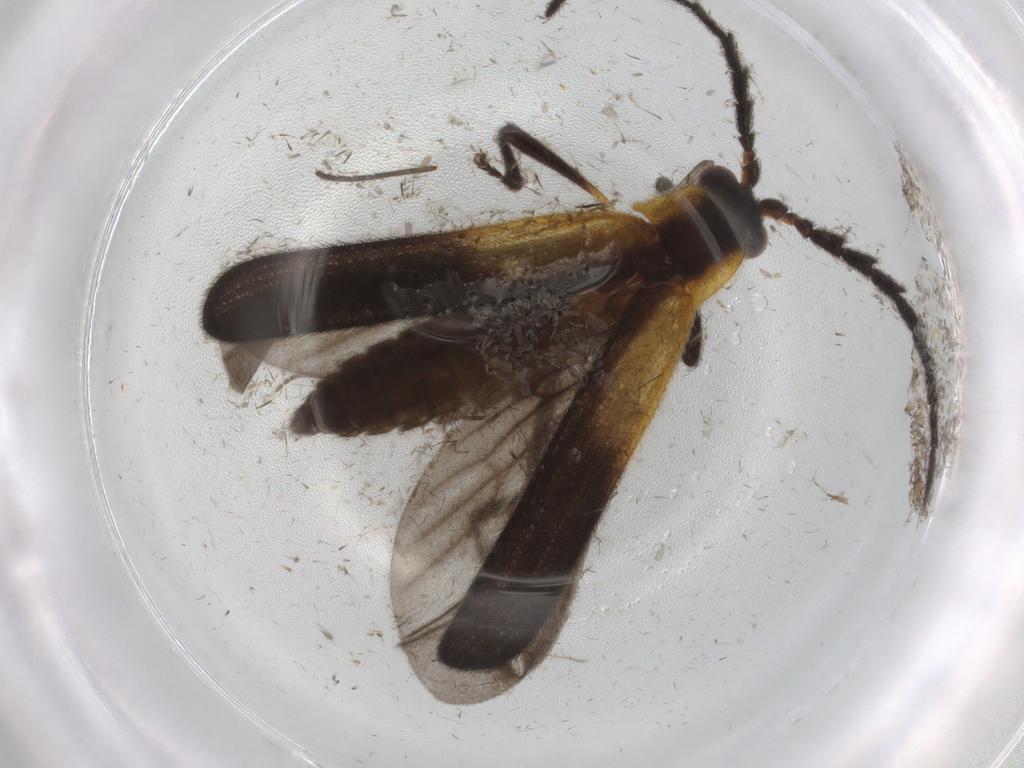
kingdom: Animalia
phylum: Arthropoda
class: Insecta
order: Coleoptera
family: Lycidae
